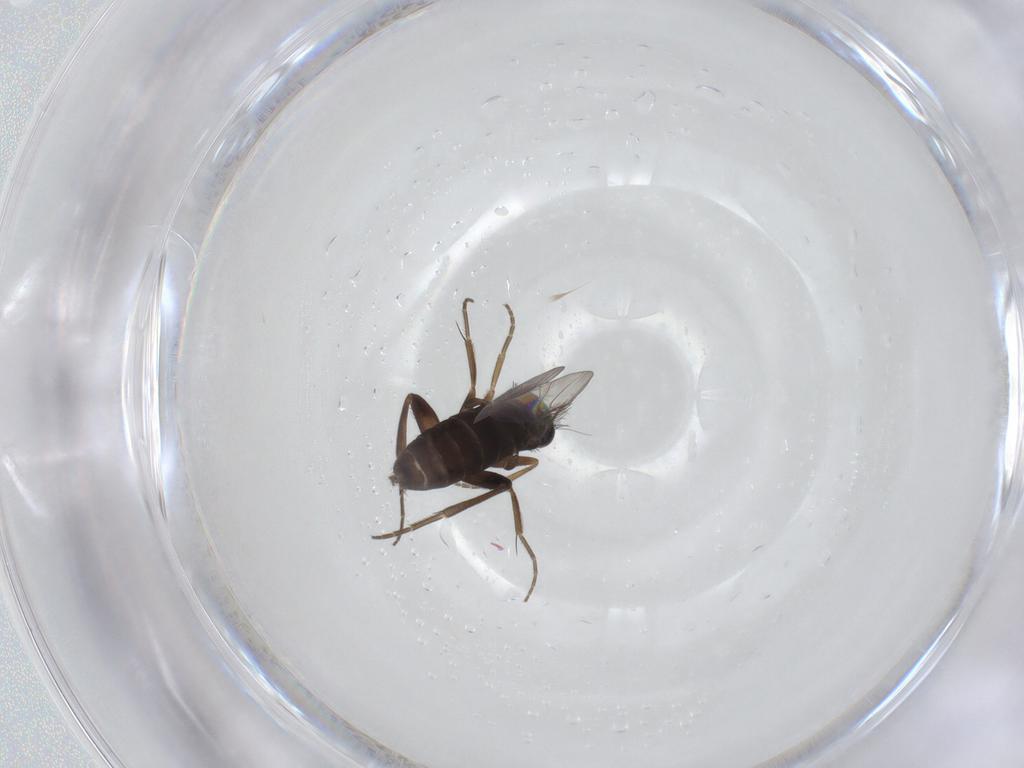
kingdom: Animalia
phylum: Arthropoda
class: Insecta
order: Diptera
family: Phoridae
